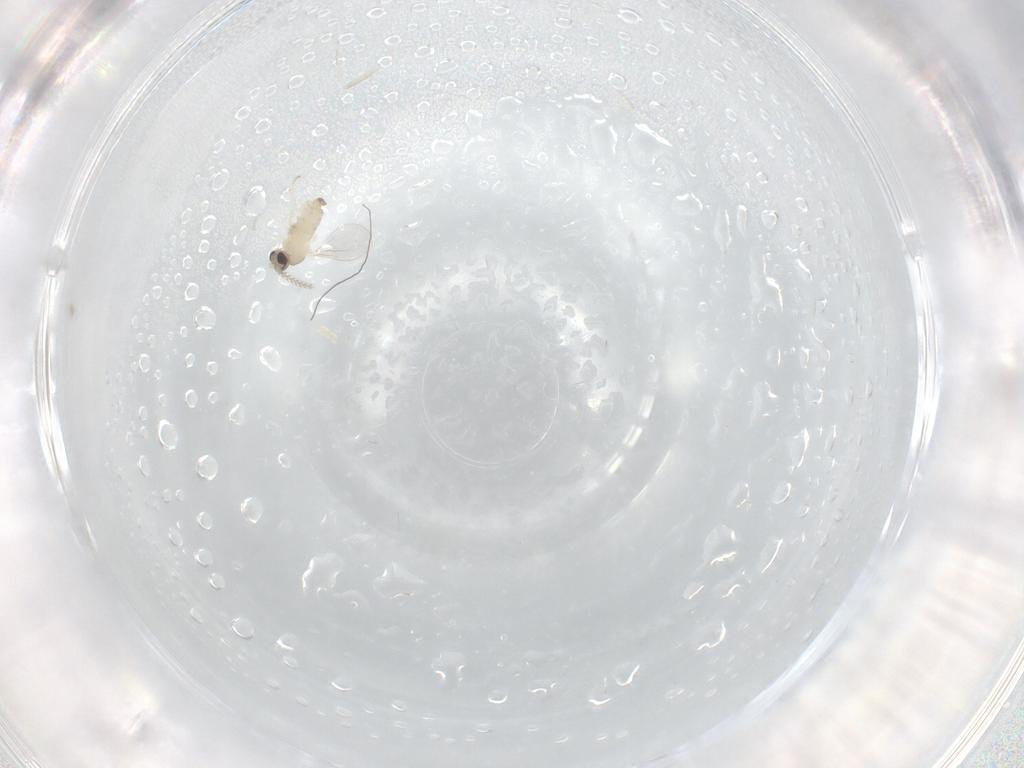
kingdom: Animalia
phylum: Arthropoda
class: Insecta
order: Diptera
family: Cecidomyiidae
